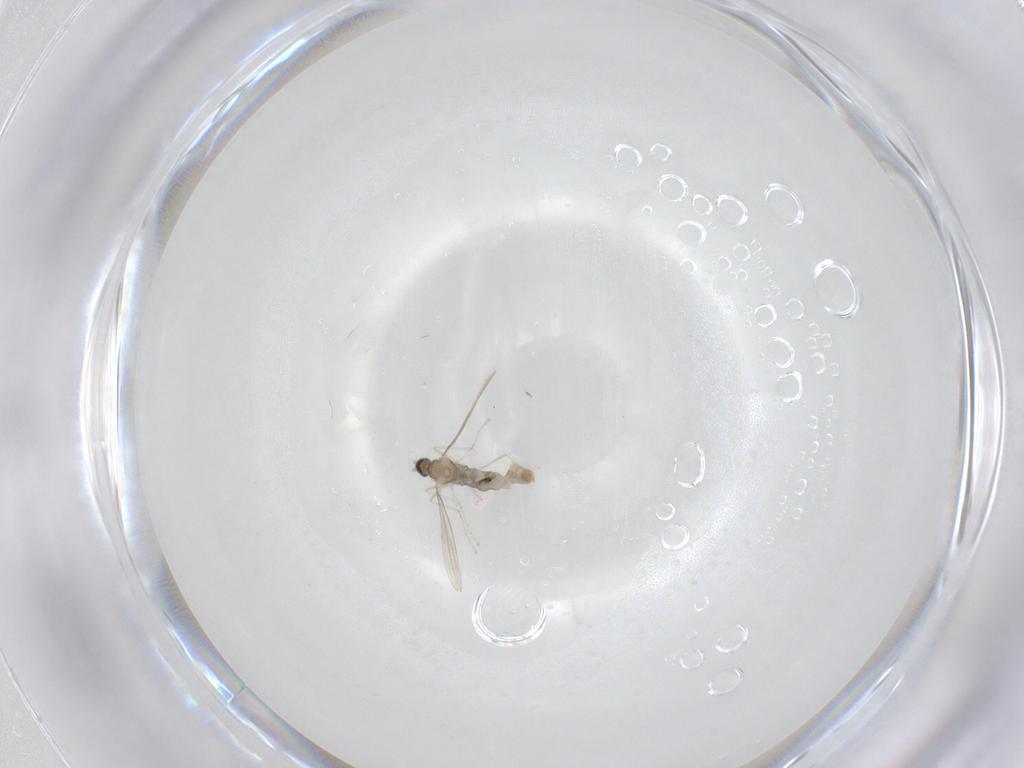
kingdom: Animalia
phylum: Arthropoda
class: Insecta
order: Diptera
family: Cecidomyiidae
